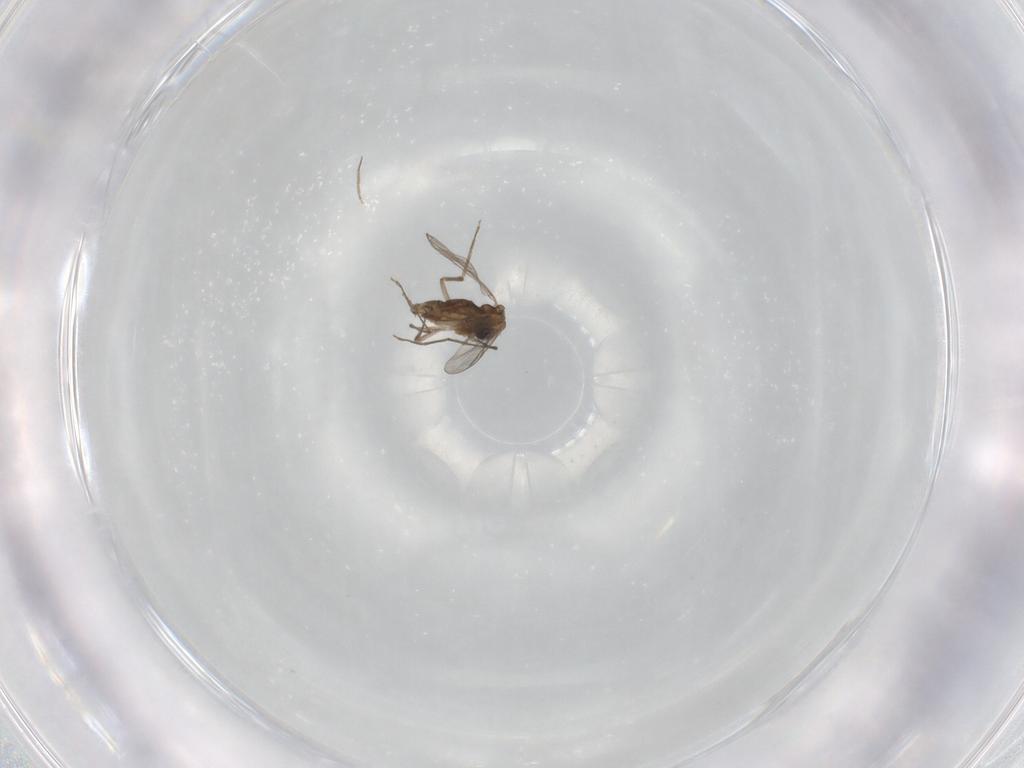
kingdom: Animalia
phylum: Arthropoda
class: Insecta
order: Diptera
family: Chironomidae
